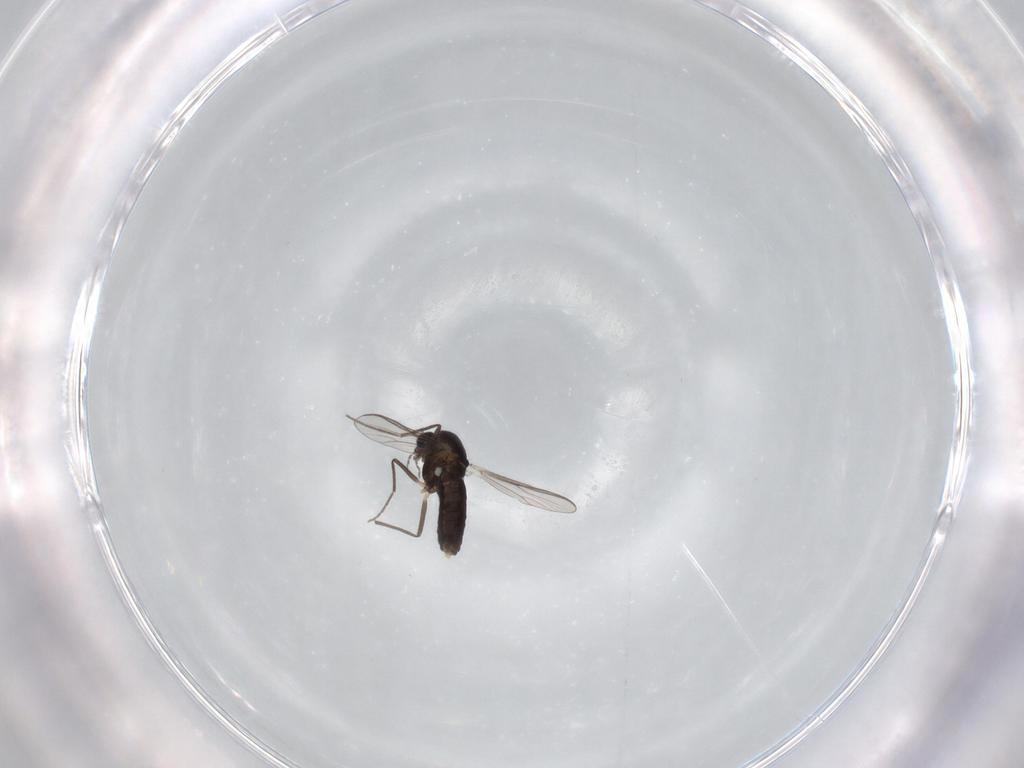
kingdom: Animalia
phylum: Arthropoda
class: Insecta
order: Diptera
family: Chironomidae
